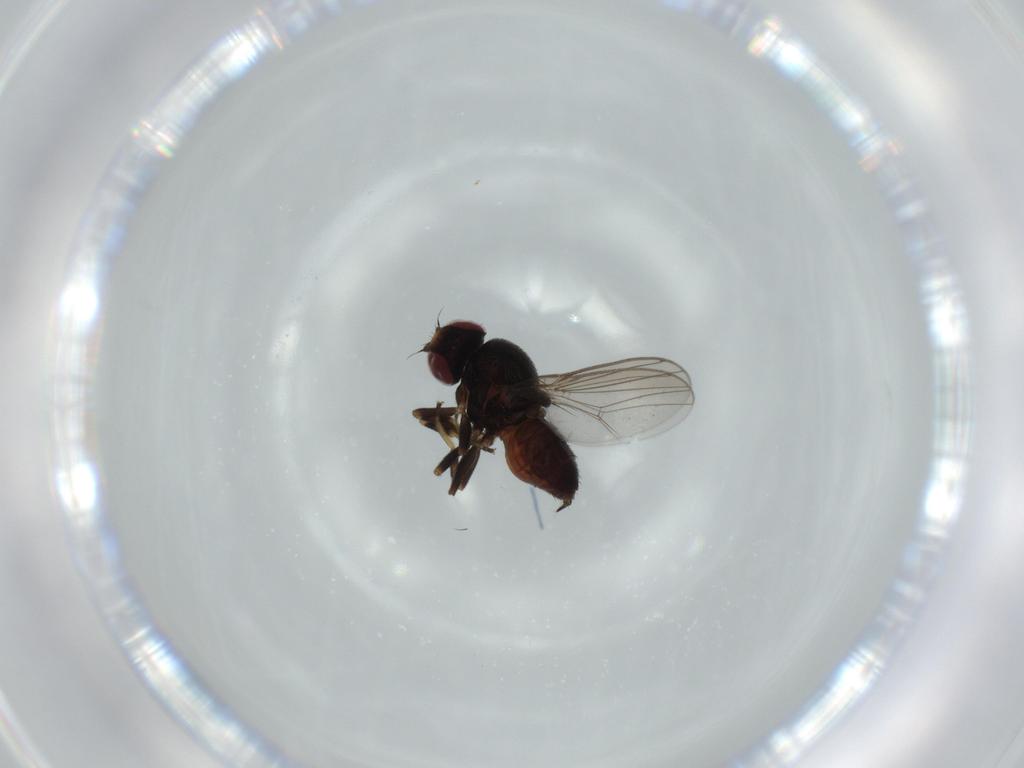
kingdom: Animalia
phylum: Arthropoda
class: Insecta
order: Diptera
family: Chloropidae
